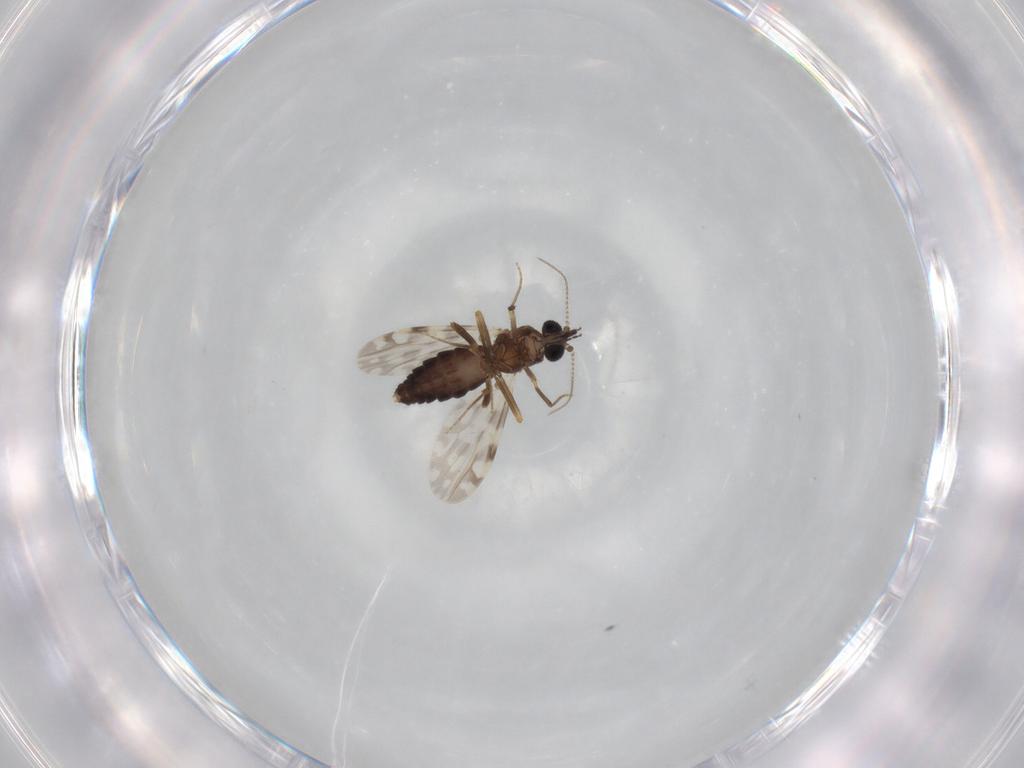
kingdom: Animalia
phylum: Arthropoda
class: Insecta
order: Diptera
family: Ceratopogonidae
